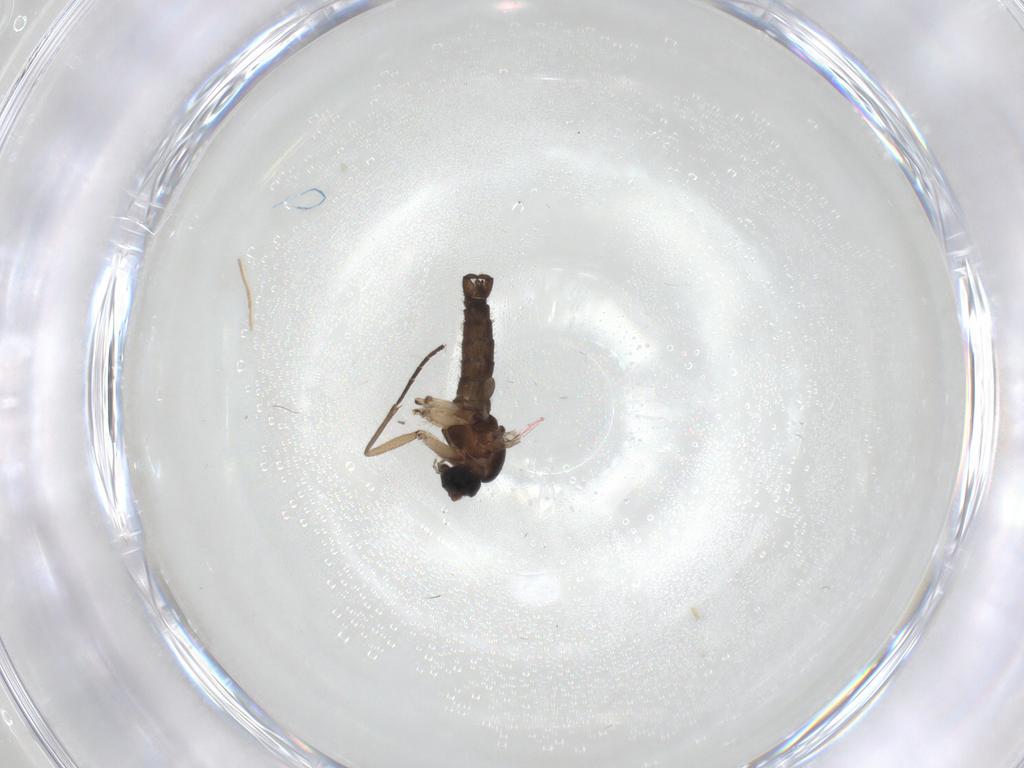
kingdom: Animalia
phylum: Arthropoda
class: Insecta
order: Diptera
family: Sciaridae
